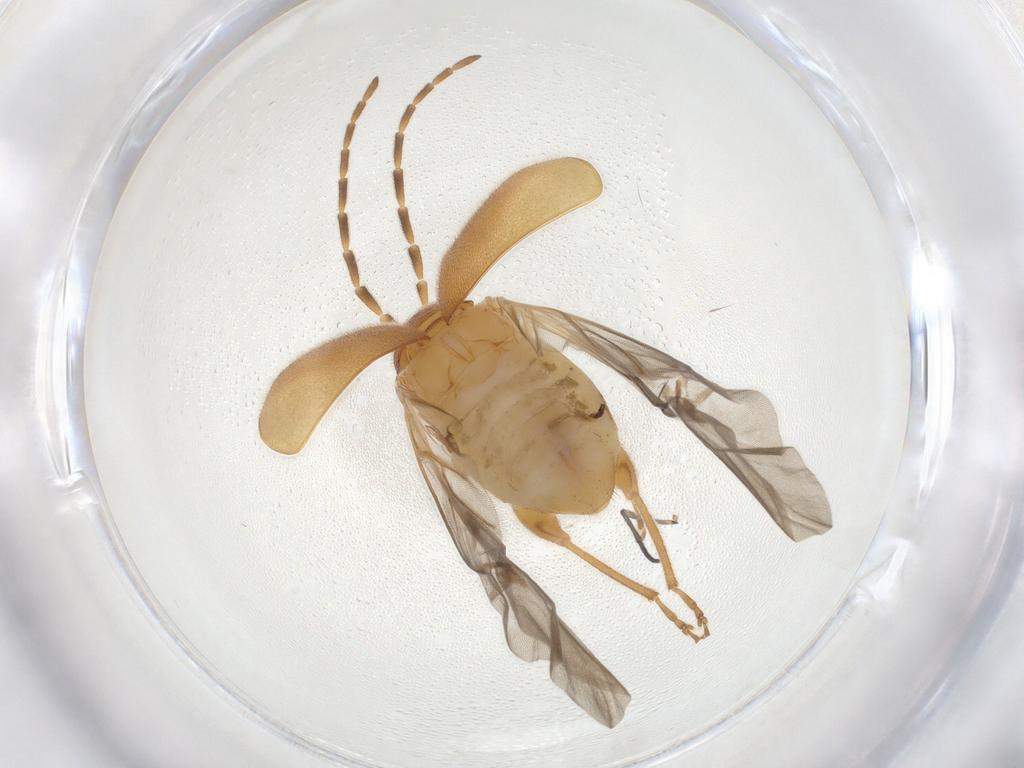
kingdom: Animalia
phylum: Arthropoda
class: Insecta
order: Coleoptera
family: Chrysomelidae
